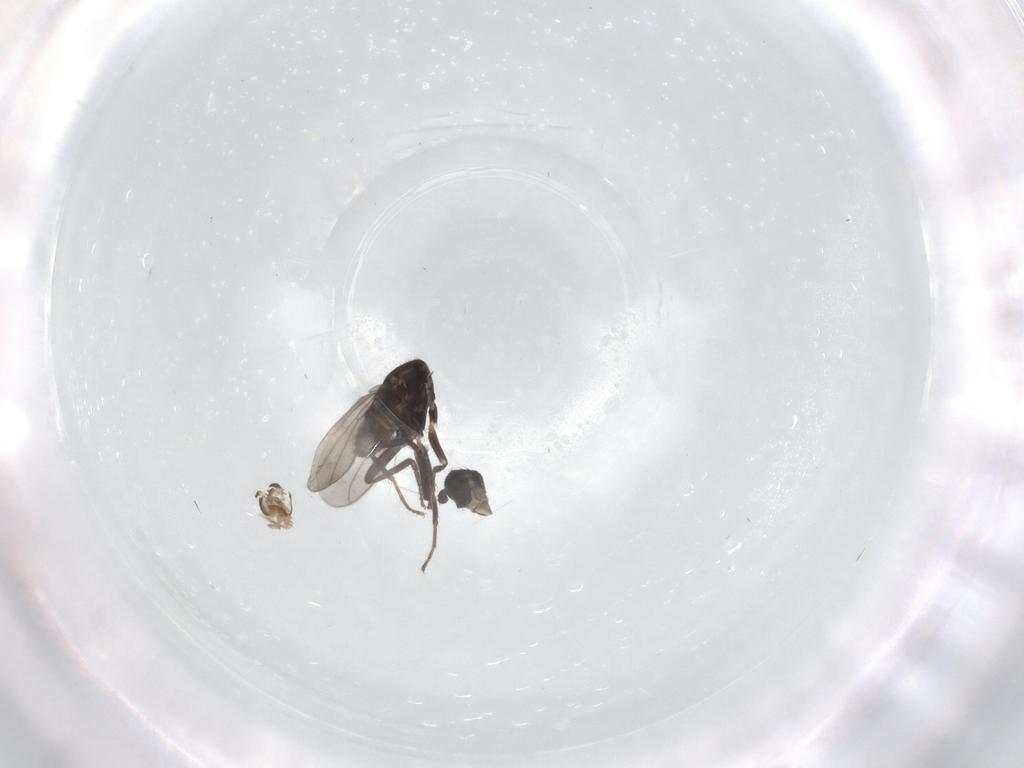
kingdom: Animalia
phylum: Arthropoda
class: Insecta
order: Diptera
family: Sphaeroceridae
